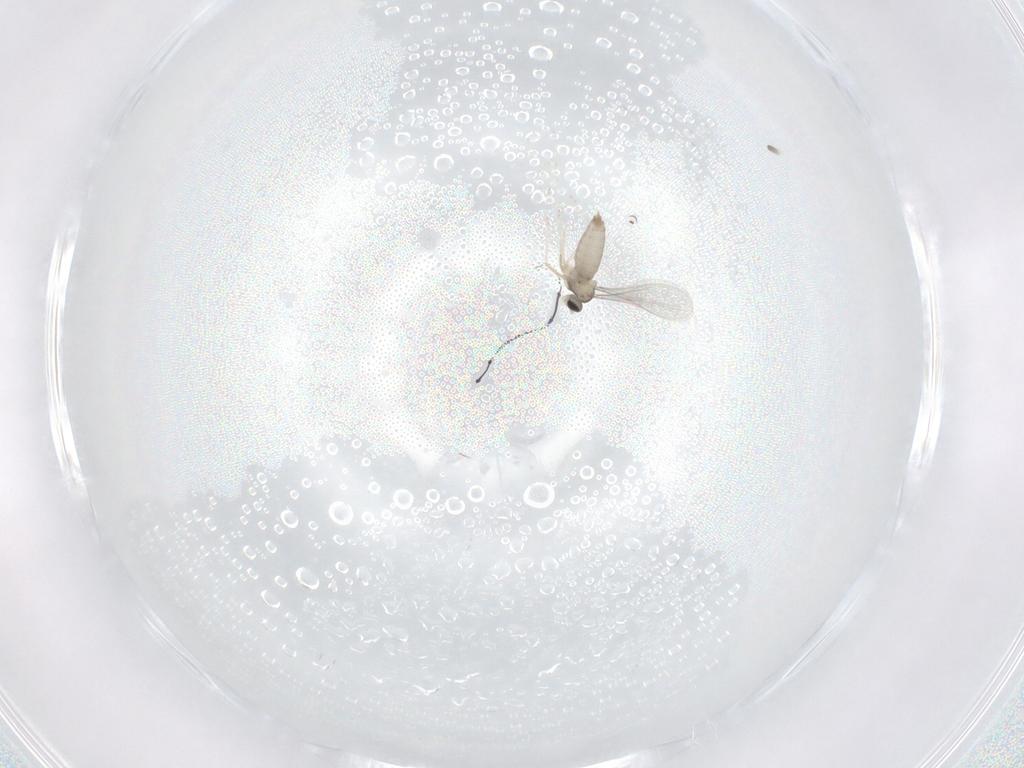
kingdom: Animalia
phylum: Arthropoda
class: Insecta
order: Diptera
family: Cecidomyiidae
